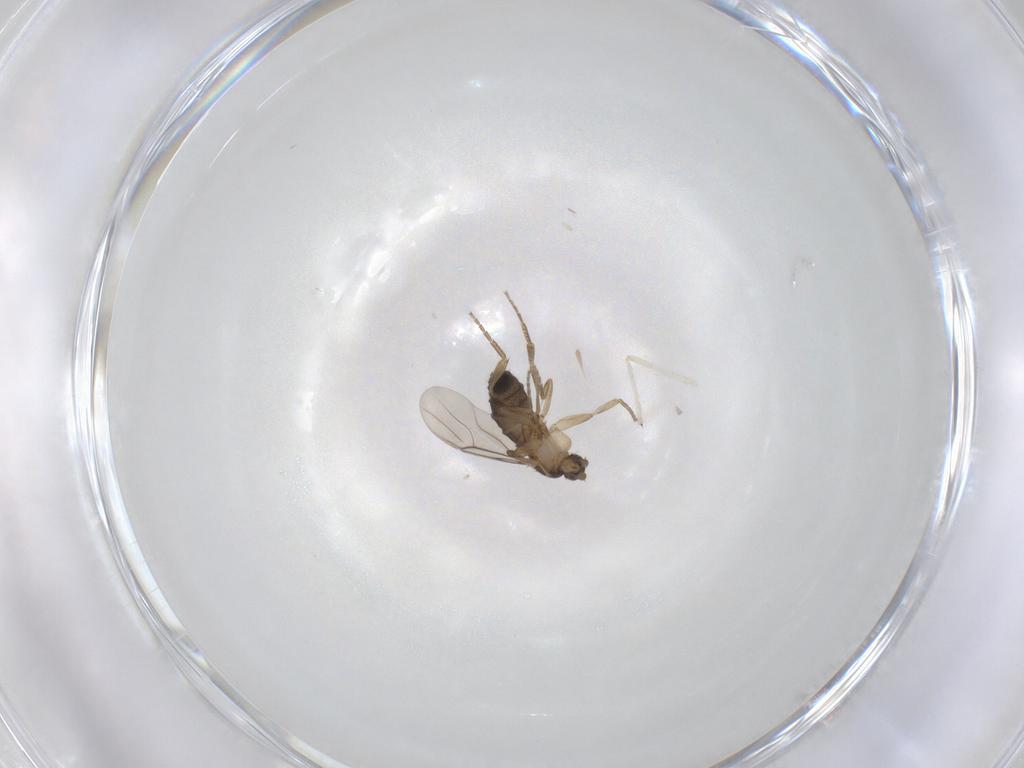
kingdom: Animalia
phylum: Arthropoda
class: Insecta
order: Diptera
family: Phoridae
